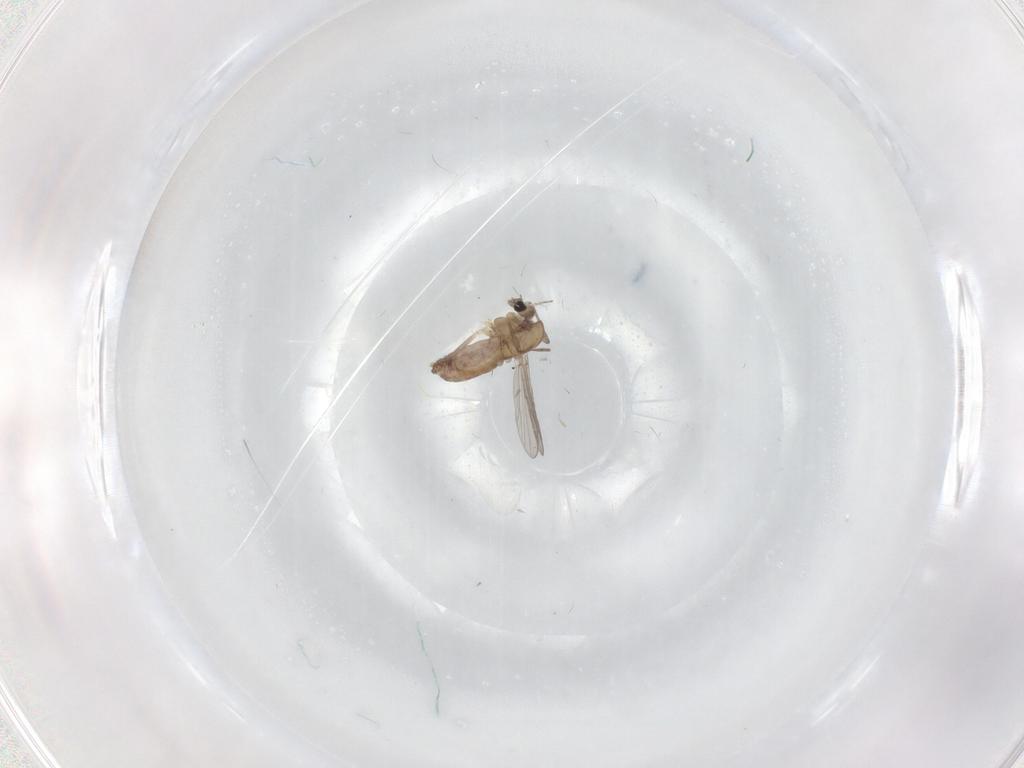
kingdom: Animalia
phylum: Arthropoda
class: Insecta
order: Diptera
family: Chironomidae
